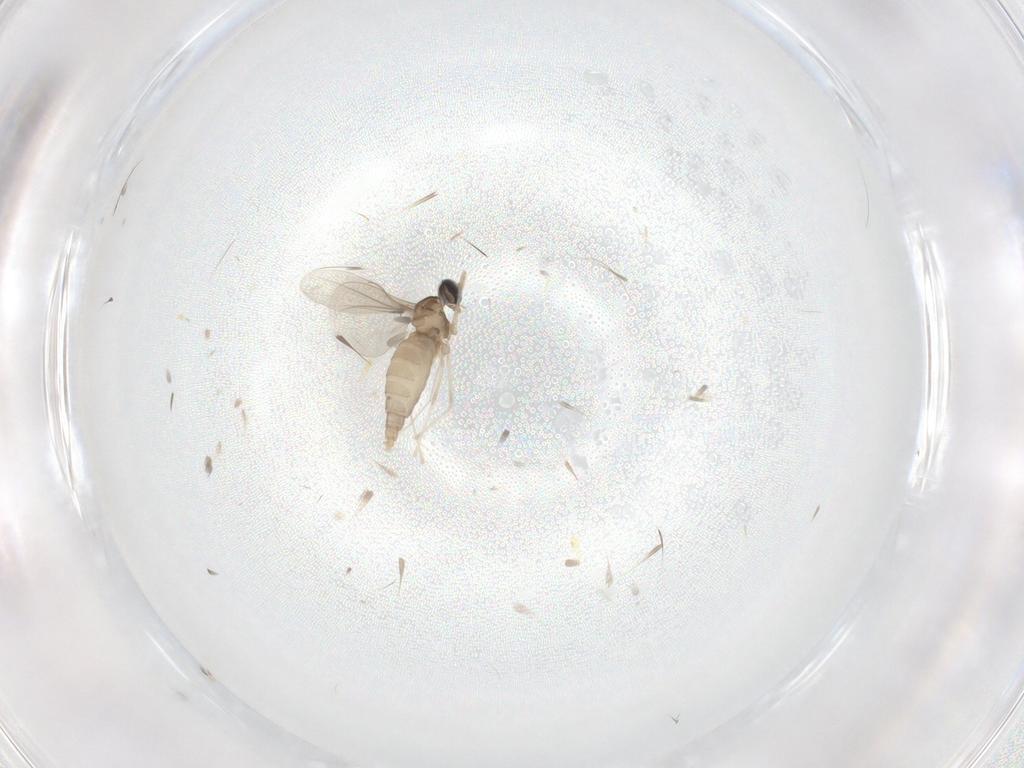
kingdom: Animalia
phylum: Arthropoda
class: Insecta
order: Diptera
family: Cecidomyiidae
